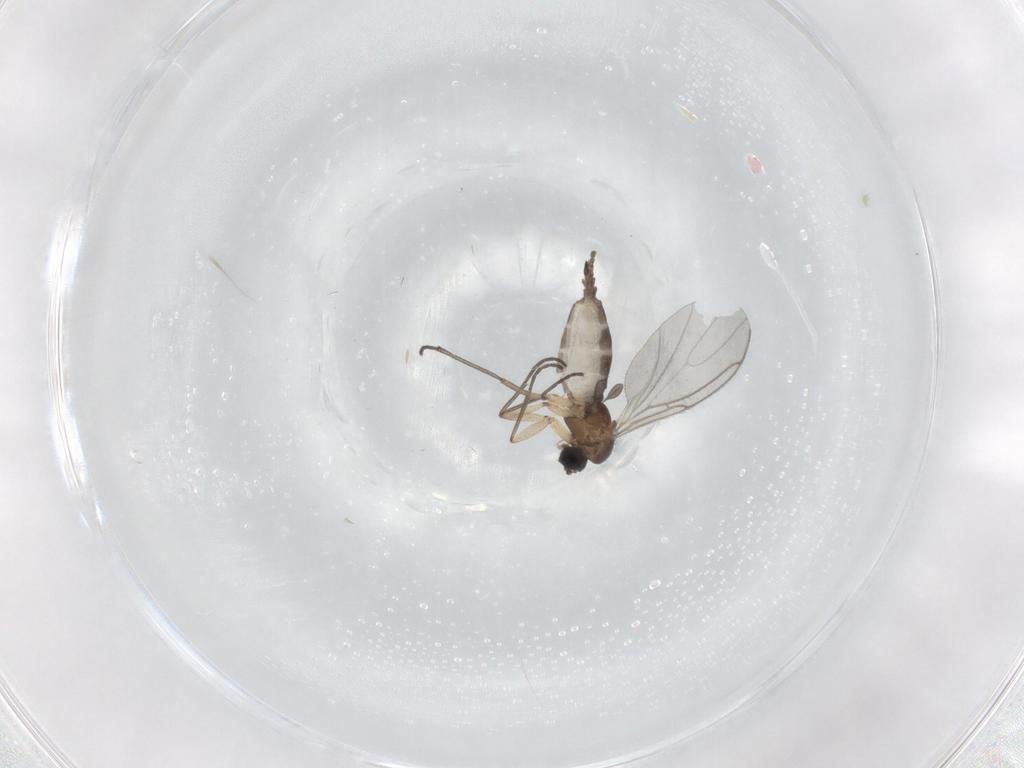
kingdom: Animalia
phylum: Arthropoda
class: Insecta
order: Diptera
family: Sciaridae
